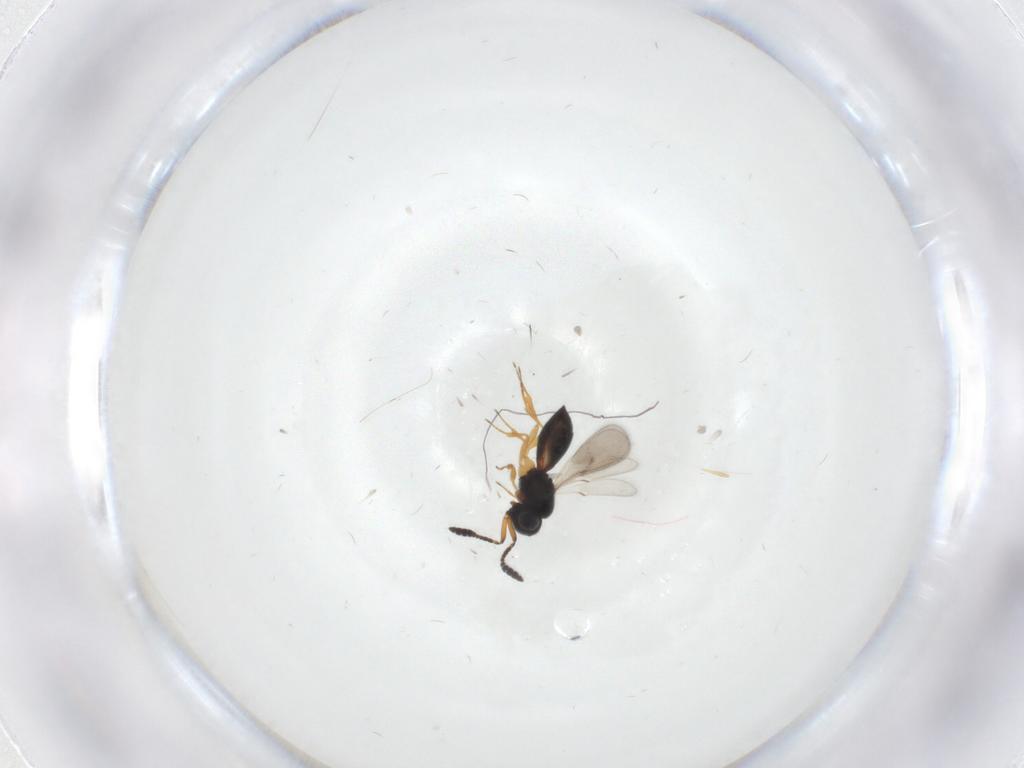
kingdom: Animalia
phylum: Arthropoda
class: Insecta
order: Hymenoptera
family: Scelionidae
